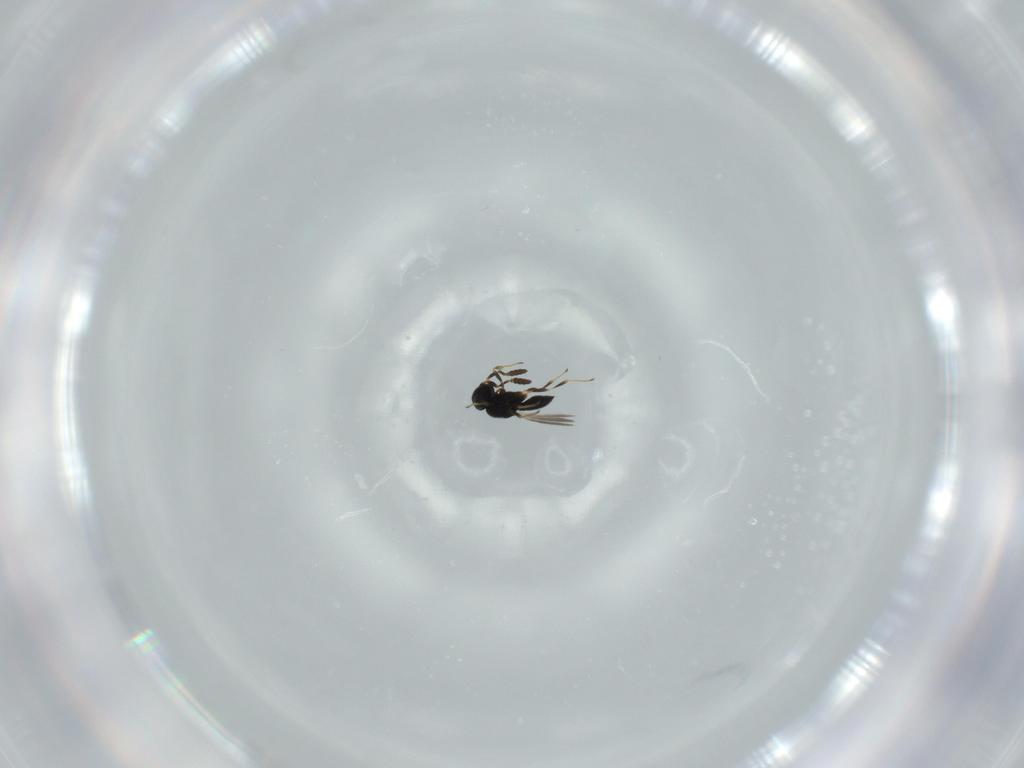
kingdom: Animalia
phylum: Arthropoda
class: Insecta
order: Hymenoptera
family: Scelionidae
